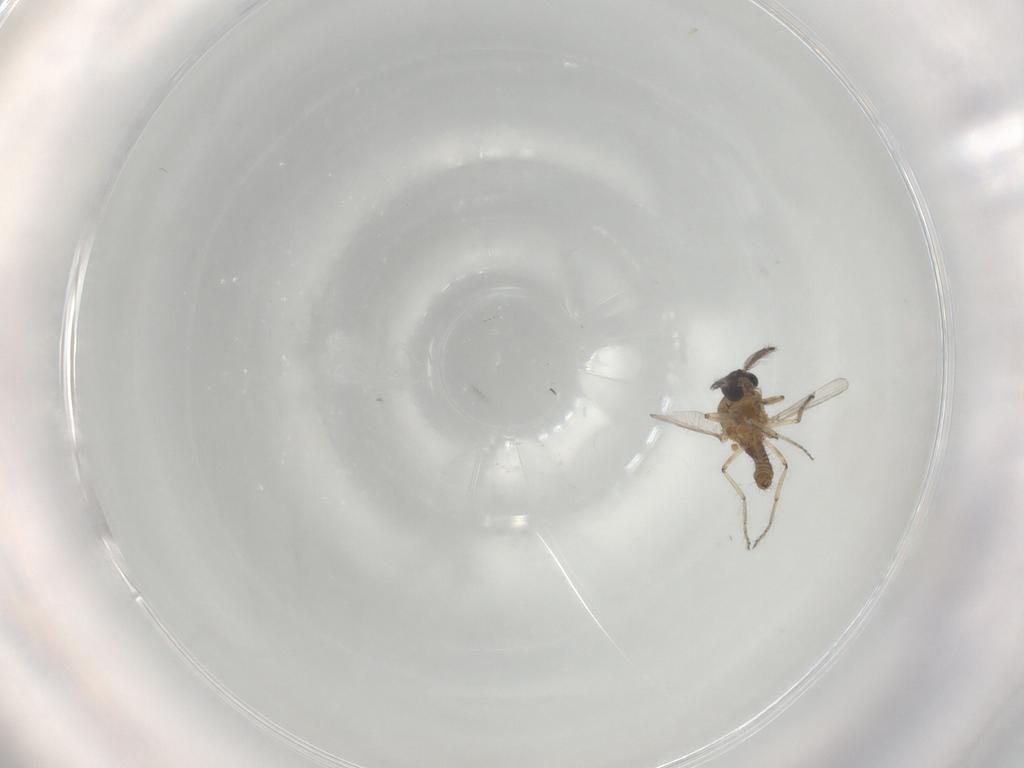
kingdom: Animalia
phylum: Arthropoda
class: Insecta
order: Diptera
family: Ceratopogonidae
